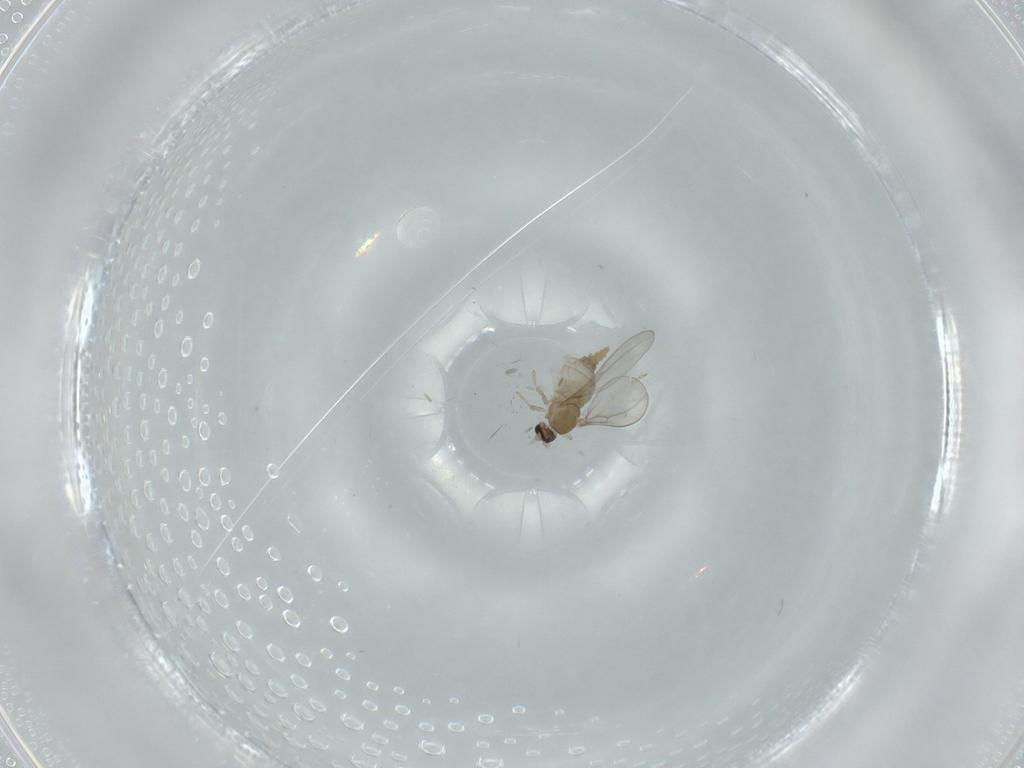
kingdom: Animalia
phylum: Arthropoda
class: Insecta
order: Diptera
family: Cecidomyiidae
